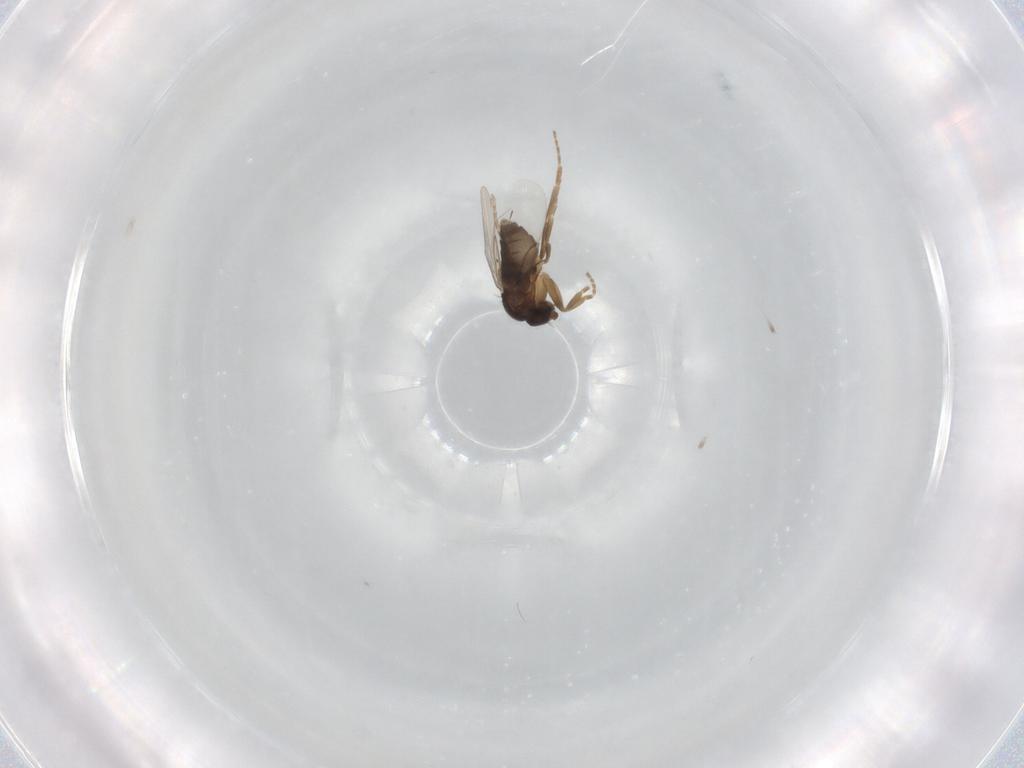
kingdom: Animalia
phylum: Arthropoda
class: Insecta
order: Diptera
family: Phoridae
